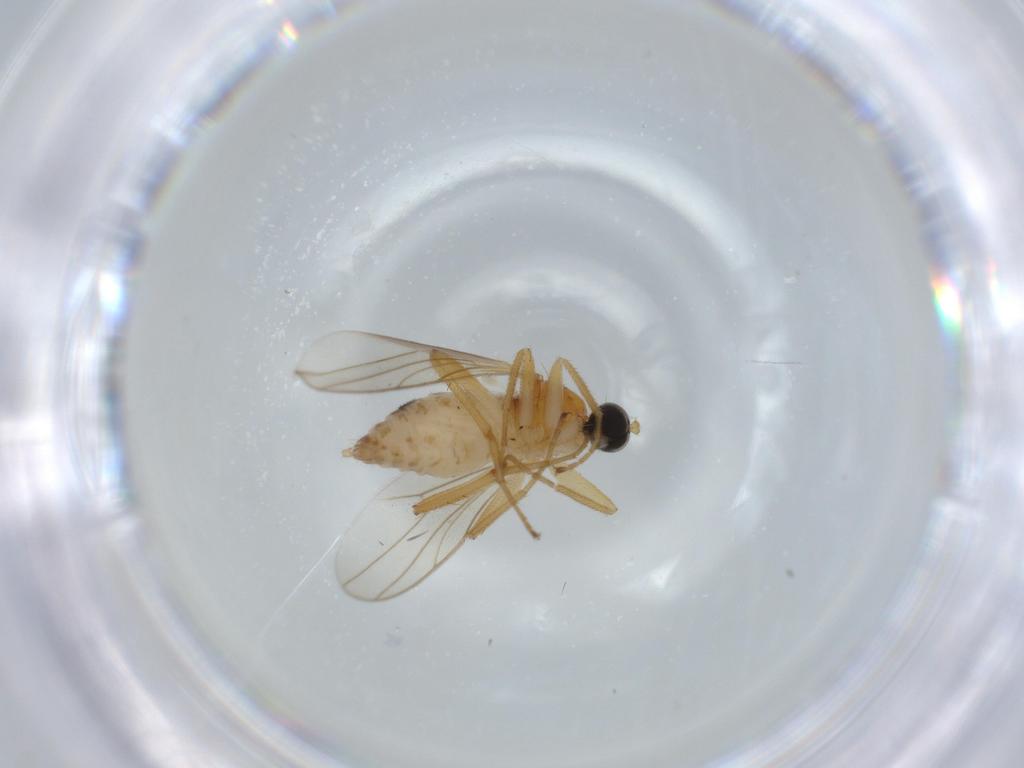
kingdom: Animalia
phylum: Arthropoda
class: Insecta
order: Diptera
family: Hybotidae
